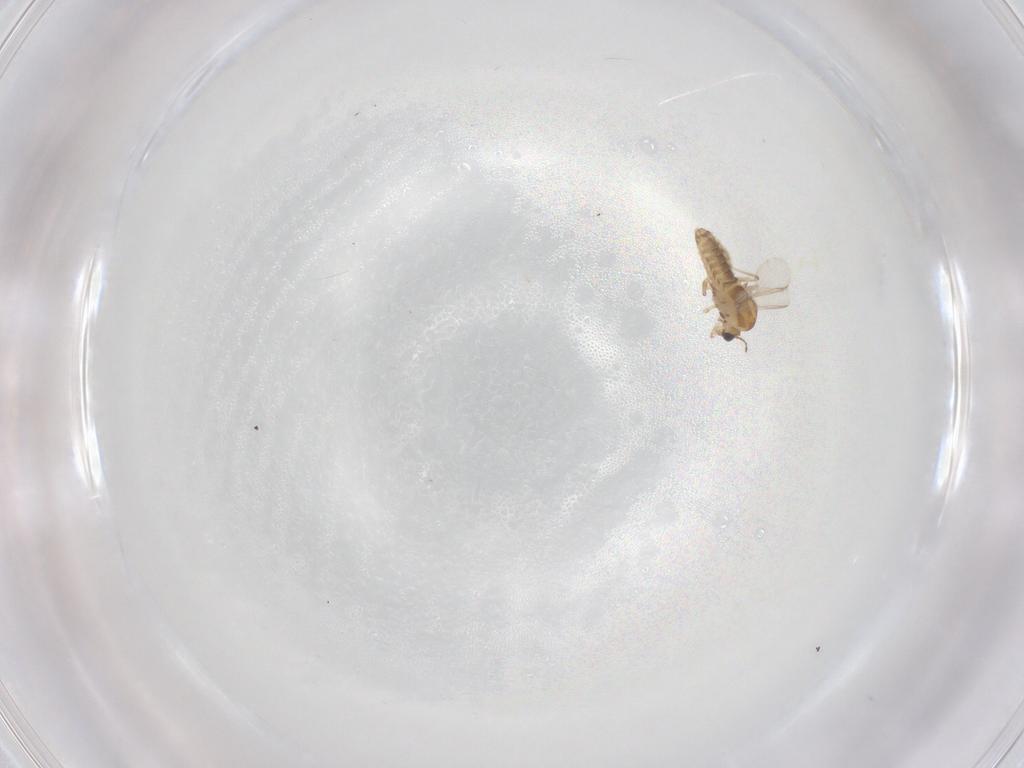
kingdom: Animalia
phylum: Arthropoda
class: Insecta
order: Diptera
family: Chironomidae
